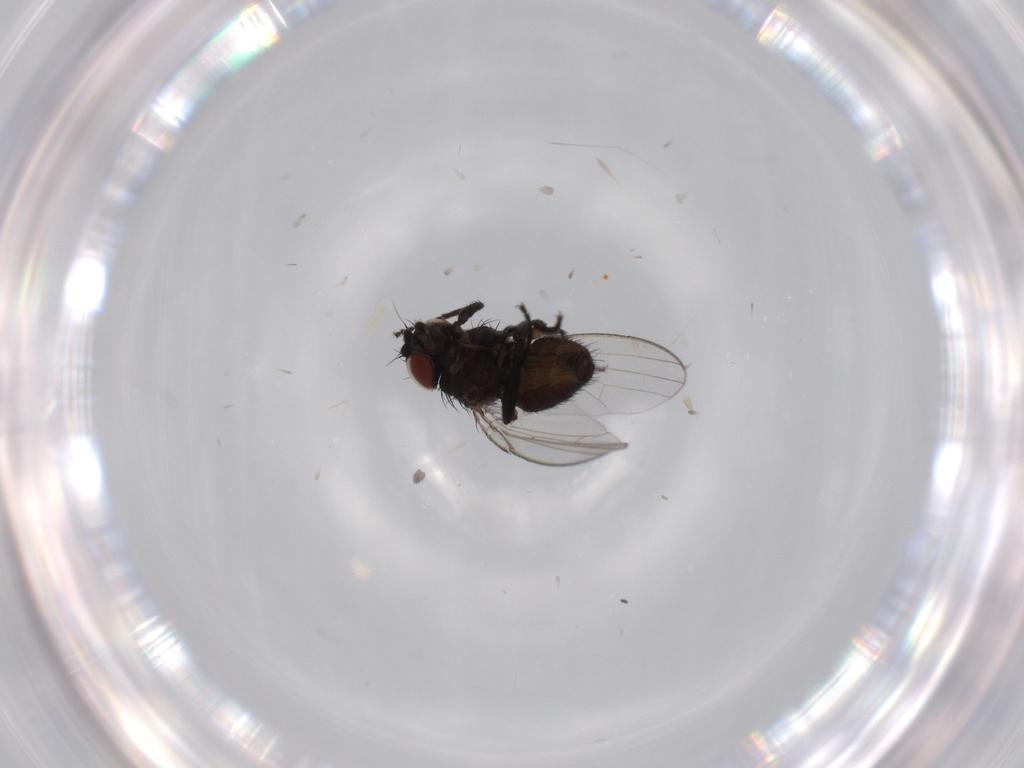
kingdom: Animalia
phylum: Arthropoda
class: Insecta
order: Diptera
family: Milichiidae
